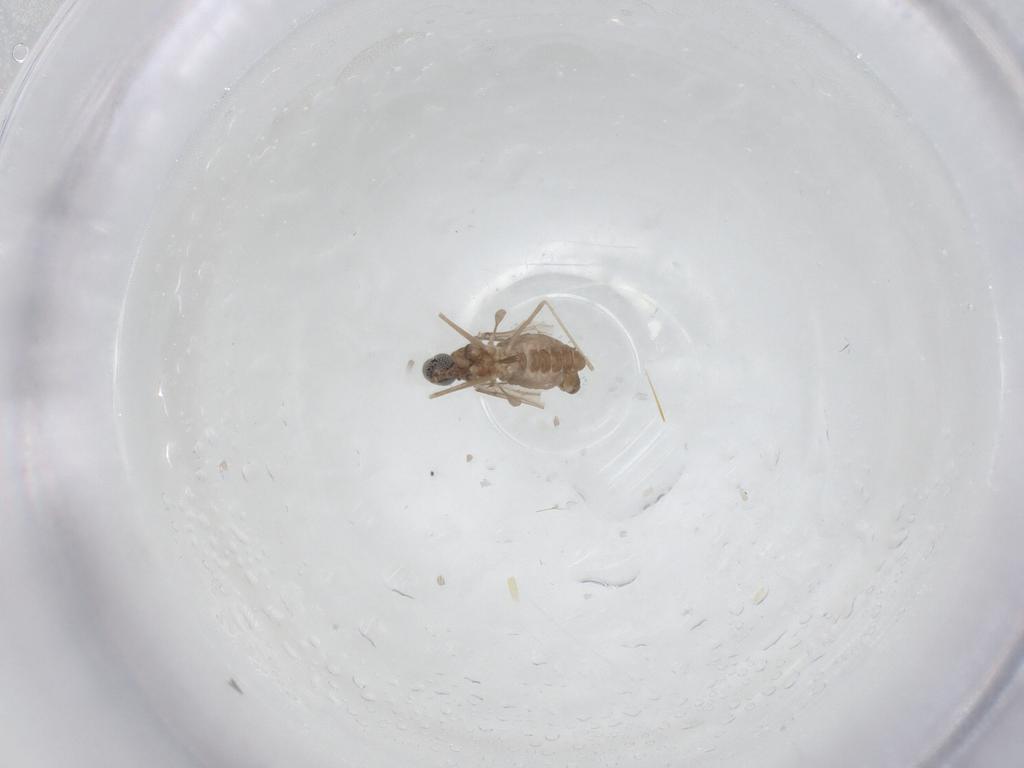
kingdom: Animalia
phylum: Arthropoda
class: Insecta
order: Diptera
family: Cecidomyiidae
